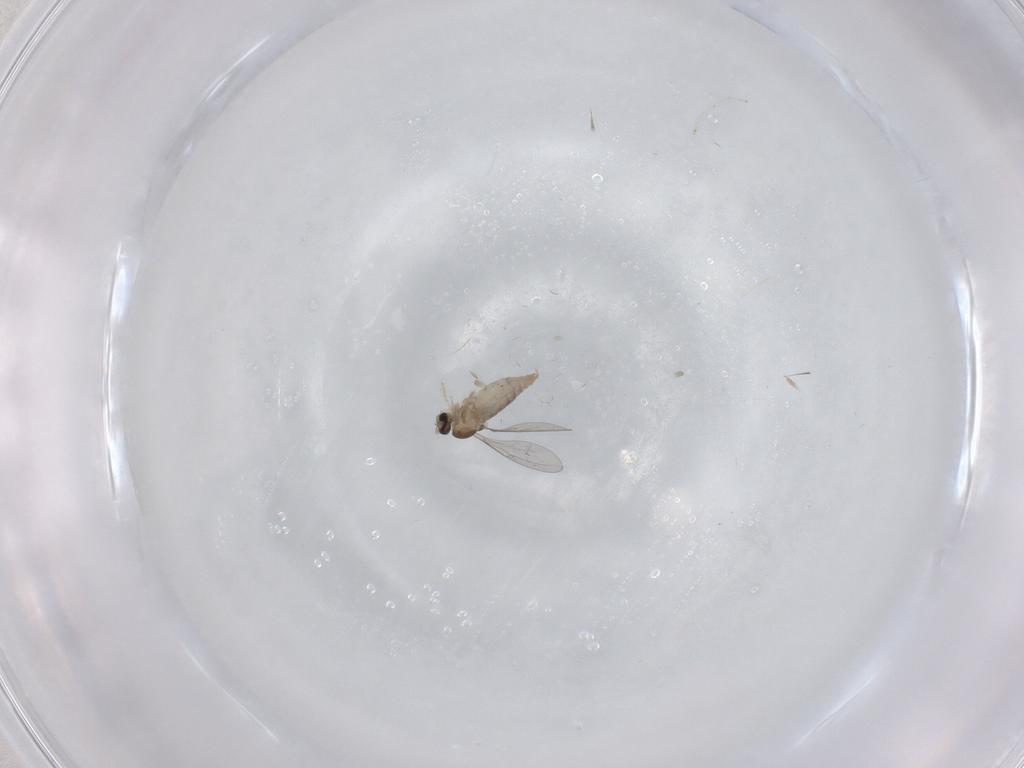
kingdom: Animalia
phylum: Arthropoda
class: Insecta
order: Diptera
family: Cecidomyiidae
